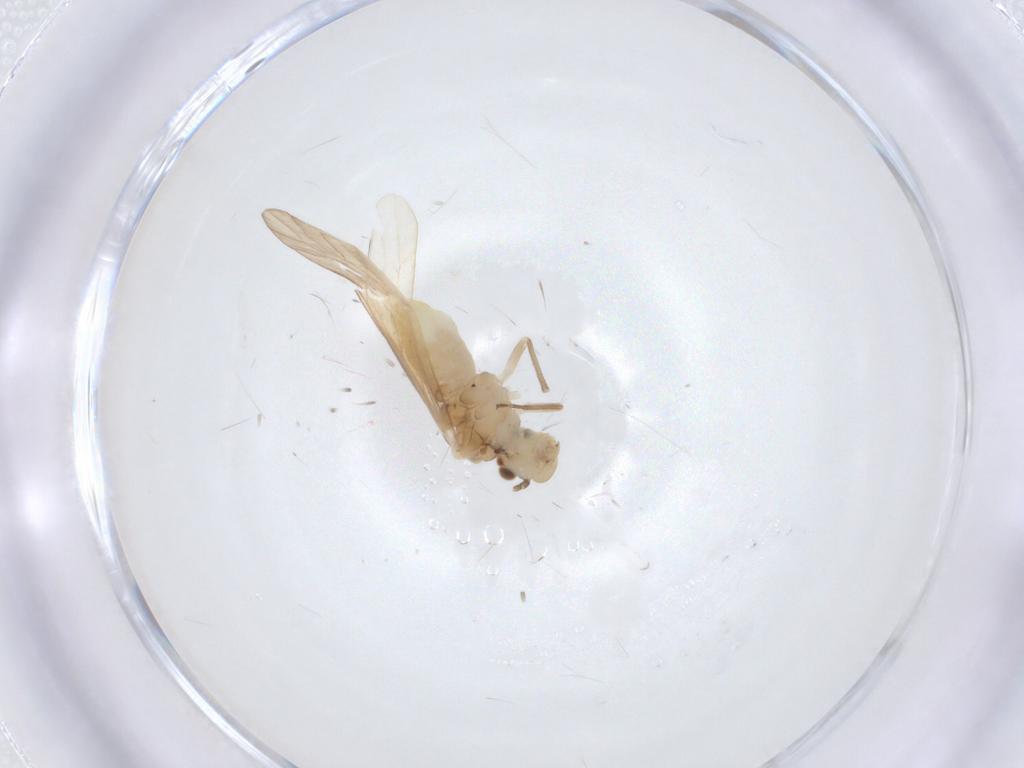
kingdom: Animalia
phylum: Arthropoda
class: Insecta
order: Psocodea
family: Caeciliusidae
